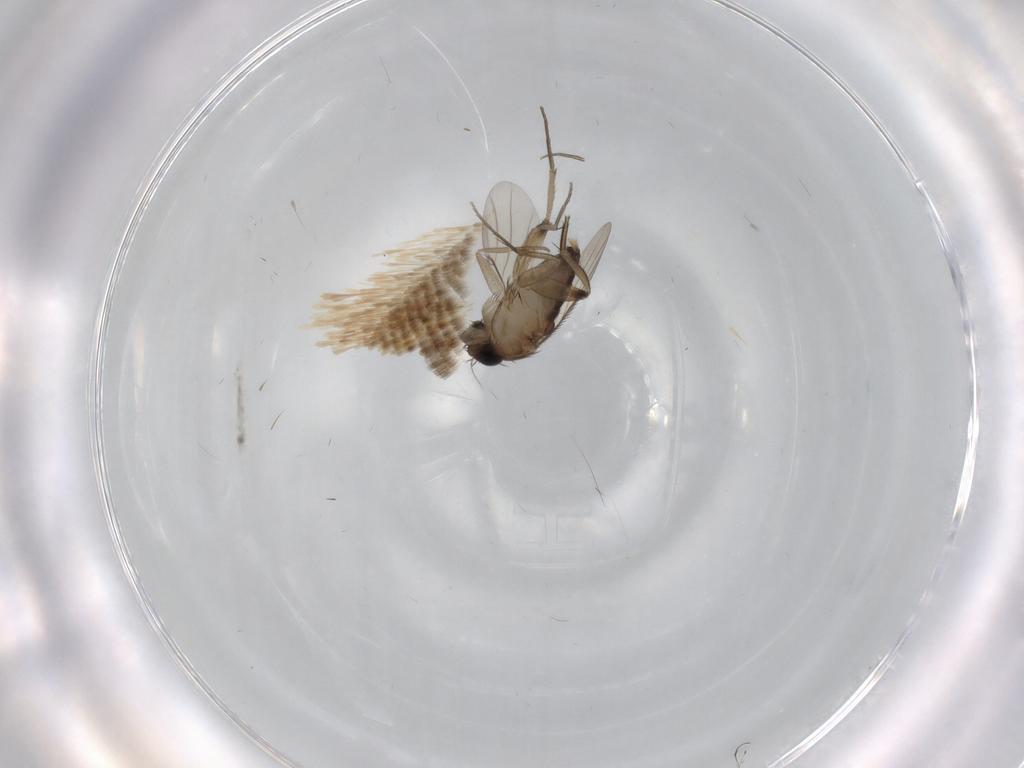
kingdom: Animalia
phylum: Arthropoda
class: Insecta
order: Diptera
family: Phoridae
